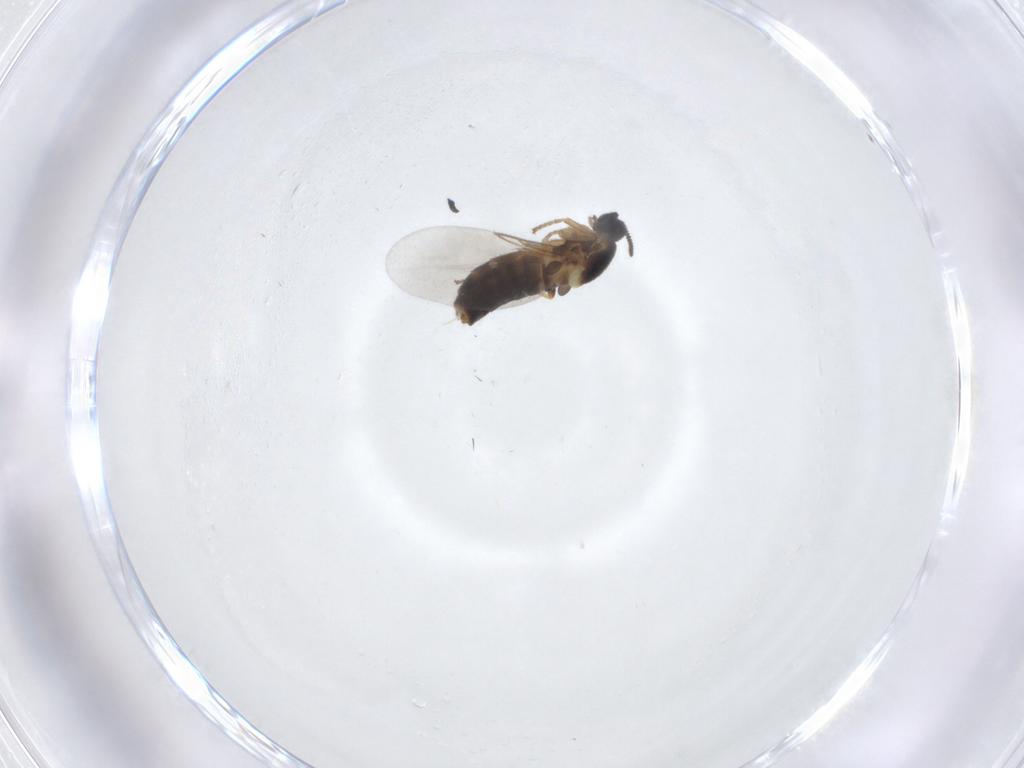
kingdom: Animalia
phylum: Arthropoda
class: Insecta
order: Diptera
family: Scatopsidae
